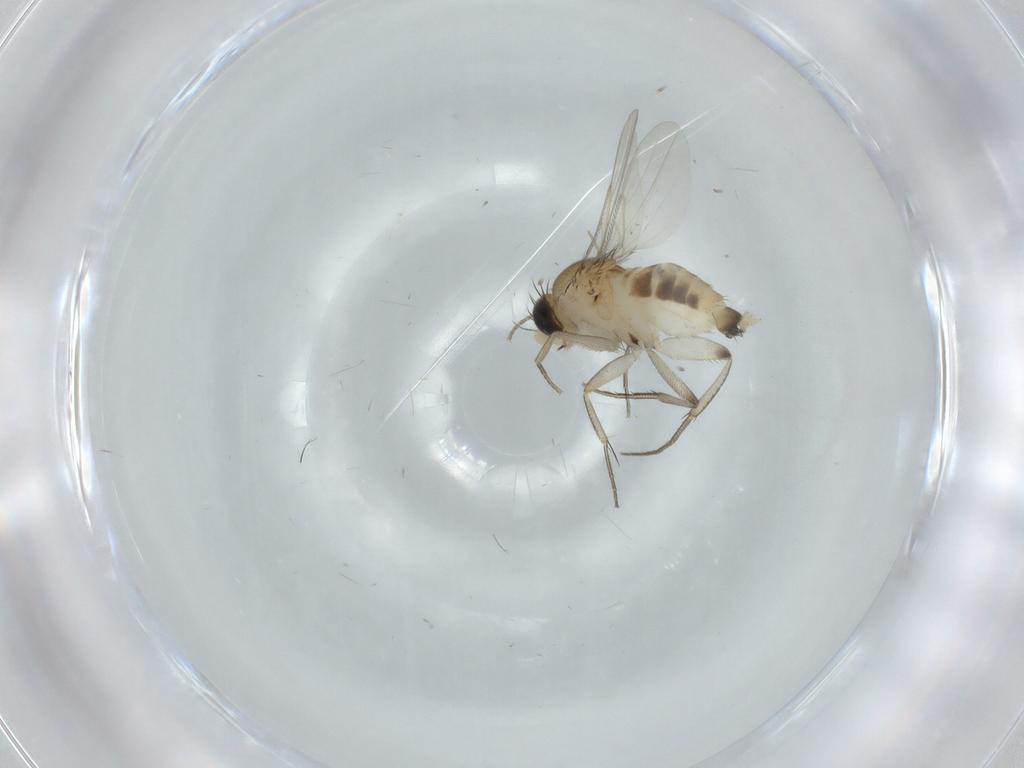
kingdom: Animalia
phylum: Arthropoda
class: Insecta
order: Diptera
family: Phoridae
